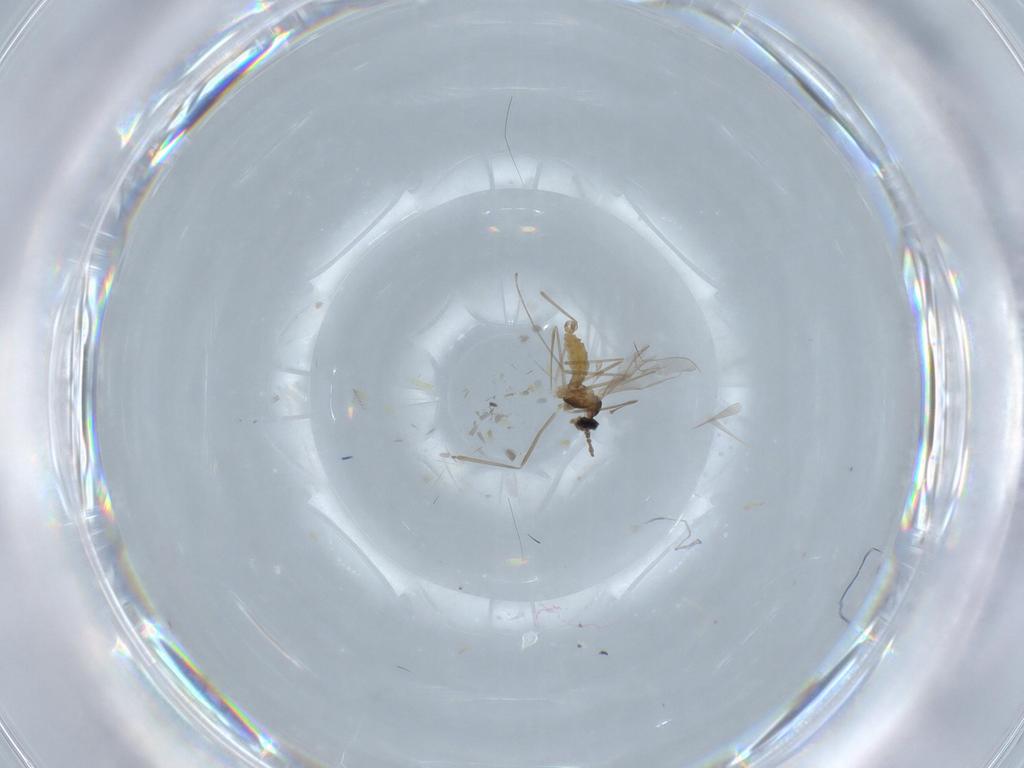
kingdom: Animalia
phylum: Arthropoda
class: Insecta
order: Diptera
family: Cecidomyiidae
